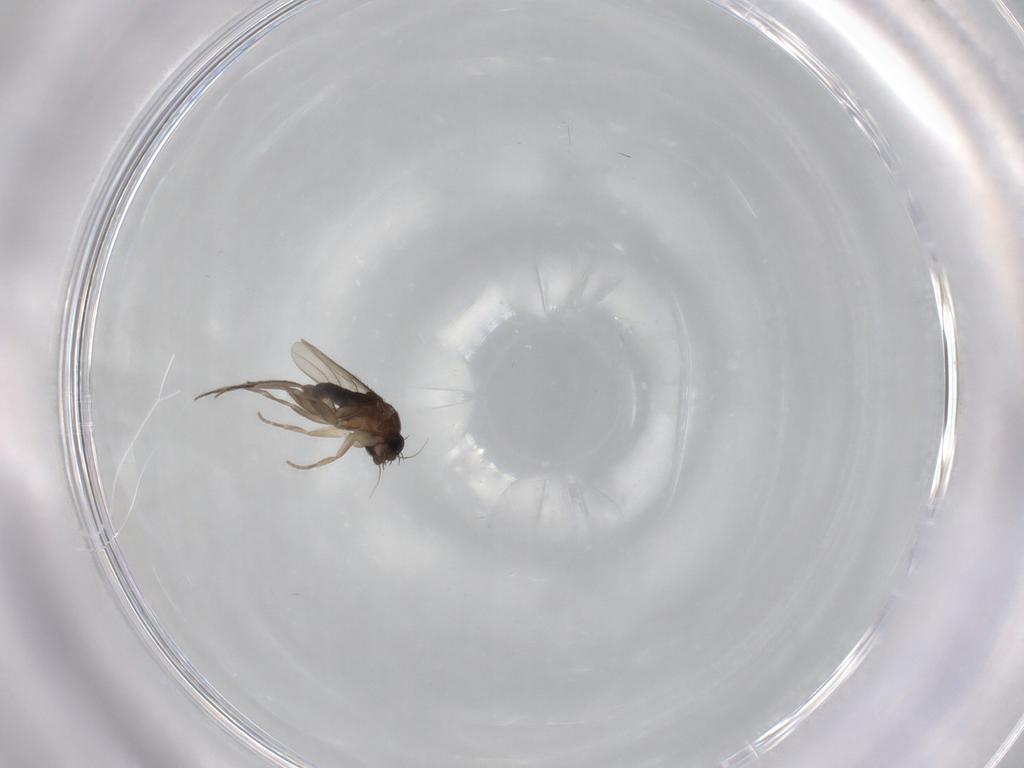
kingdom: Animalia
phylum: Arthropoda
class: Insecta
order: Diptera
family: Phoridae
